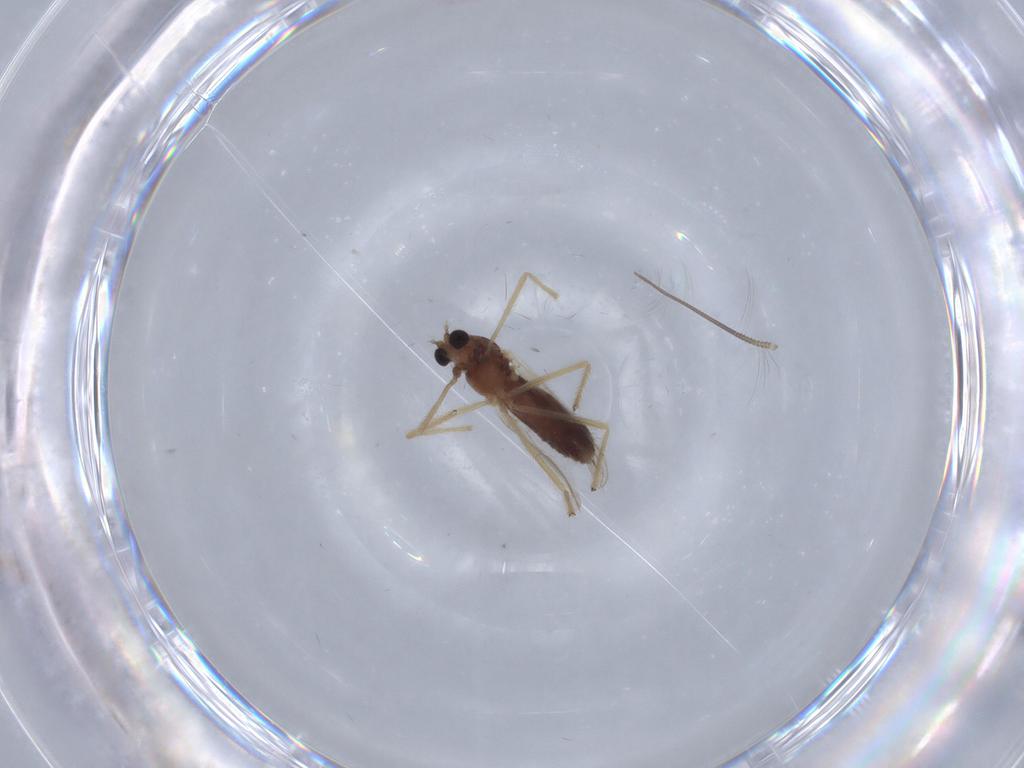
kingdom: Animalia
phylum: Arthropoda
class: Insecta
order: Diptera
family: Chironomidae
